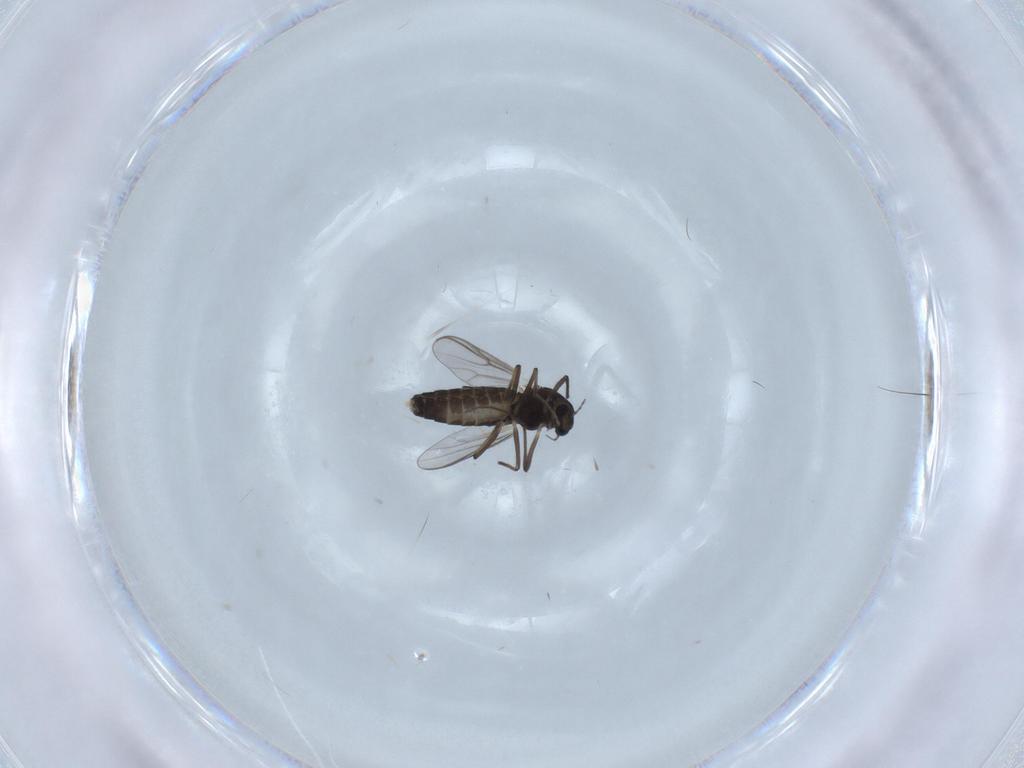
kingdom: Animalia
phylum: Arthropoda
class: Insecta
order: Diptera
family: Chironomidae
